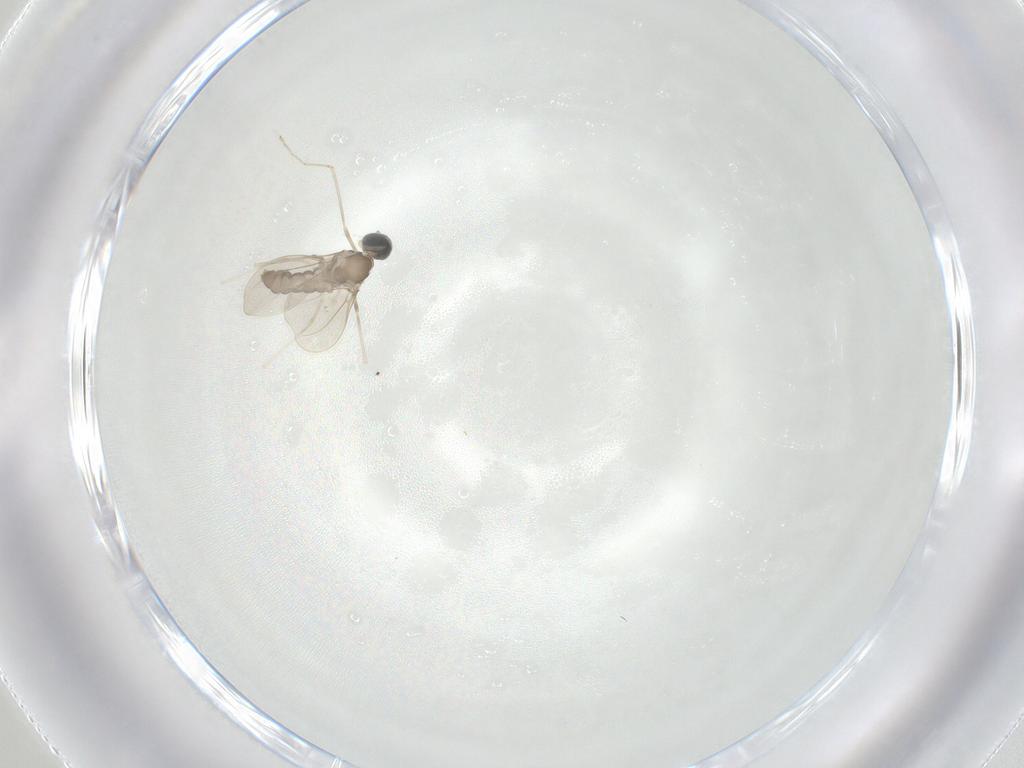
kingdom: Animalia
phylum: Arthropoda
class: Insecta
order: Diptera
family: Cecidomyiidae
